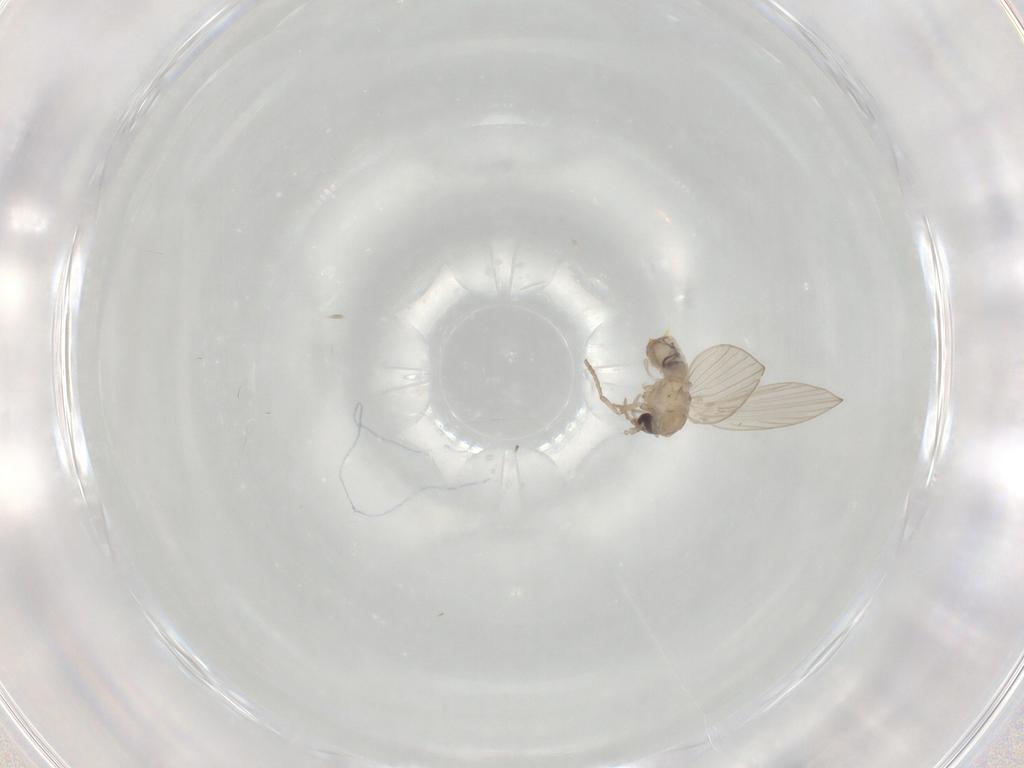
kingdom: Animalia
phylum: Arthropoda
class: Insecta
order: Diptera
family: Psychodidae
